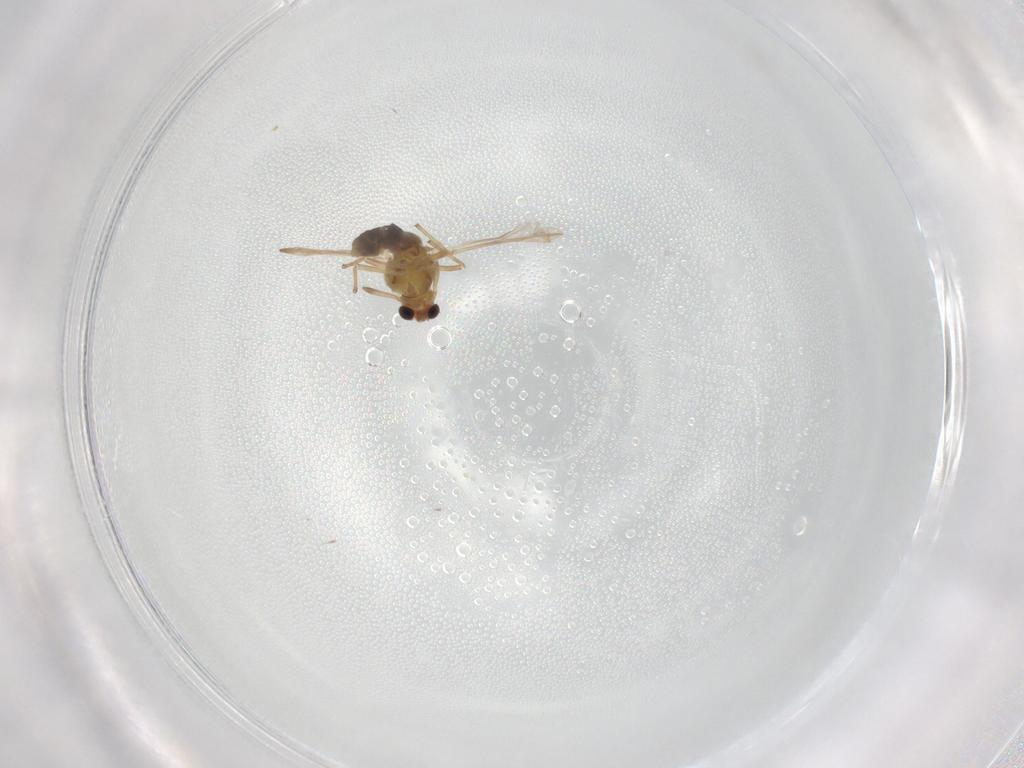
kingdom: Animalia
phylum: Arthropoda
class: Insecta
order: Diptera
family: Chironomidae
